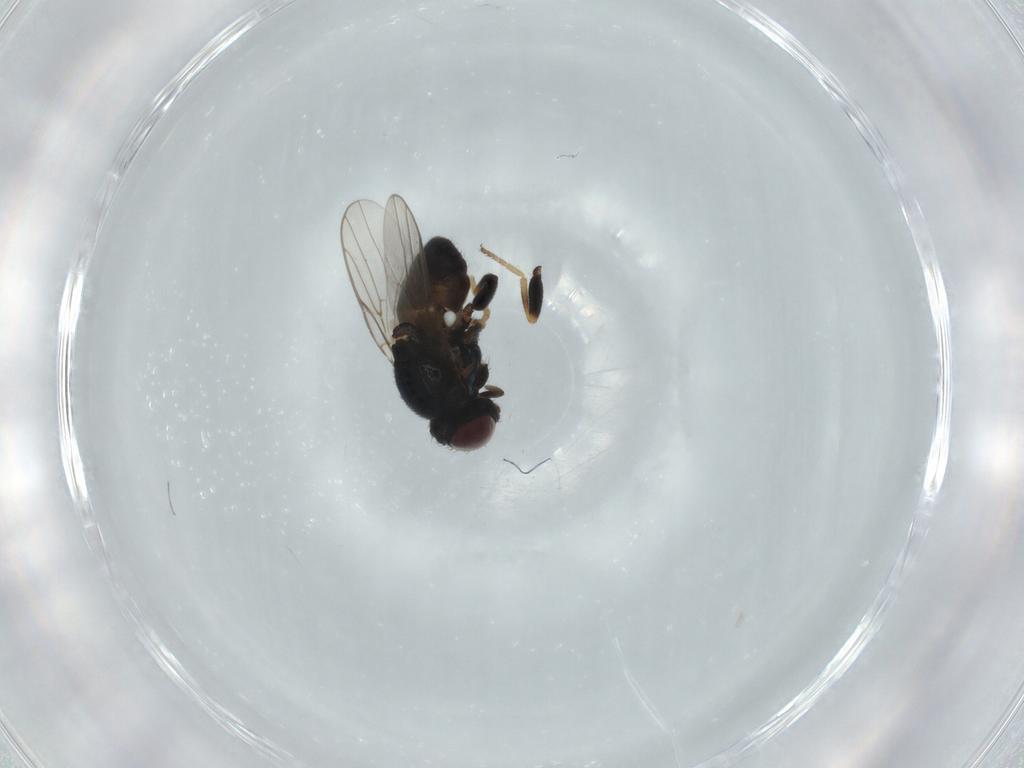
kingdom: Animalia
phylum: Arthropoda
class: Insecta
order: Diptera
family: Chloropidae
